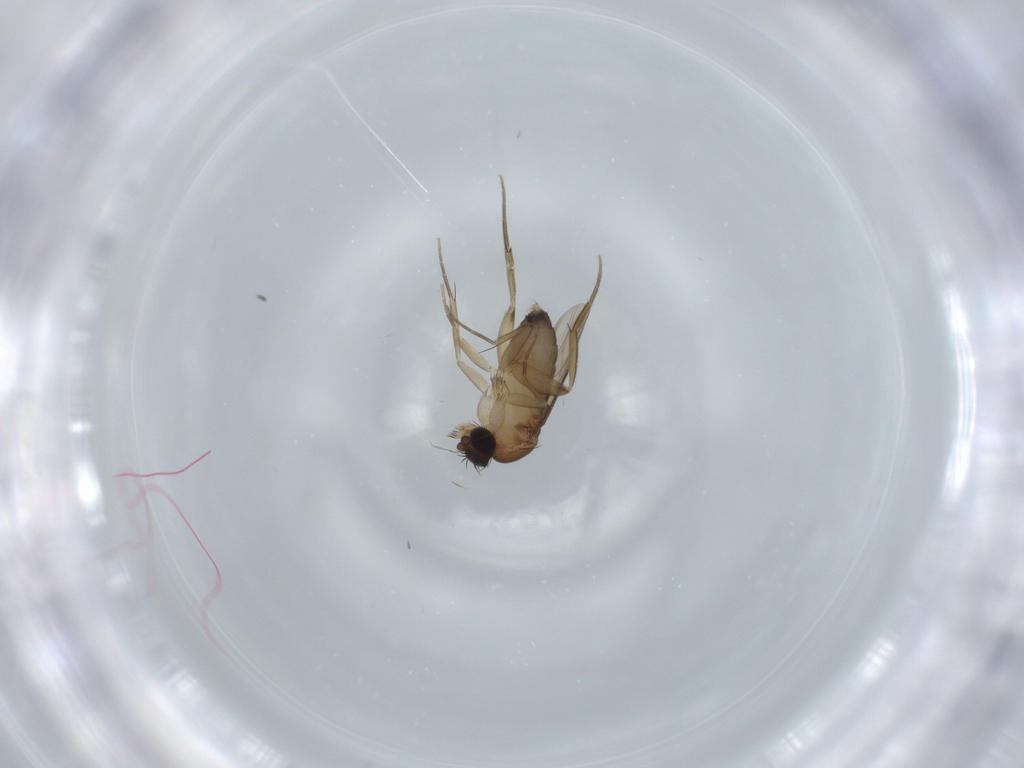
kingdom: Animalia
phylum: Arthropoda
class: Insecta
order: Diptera
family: Phoridae
